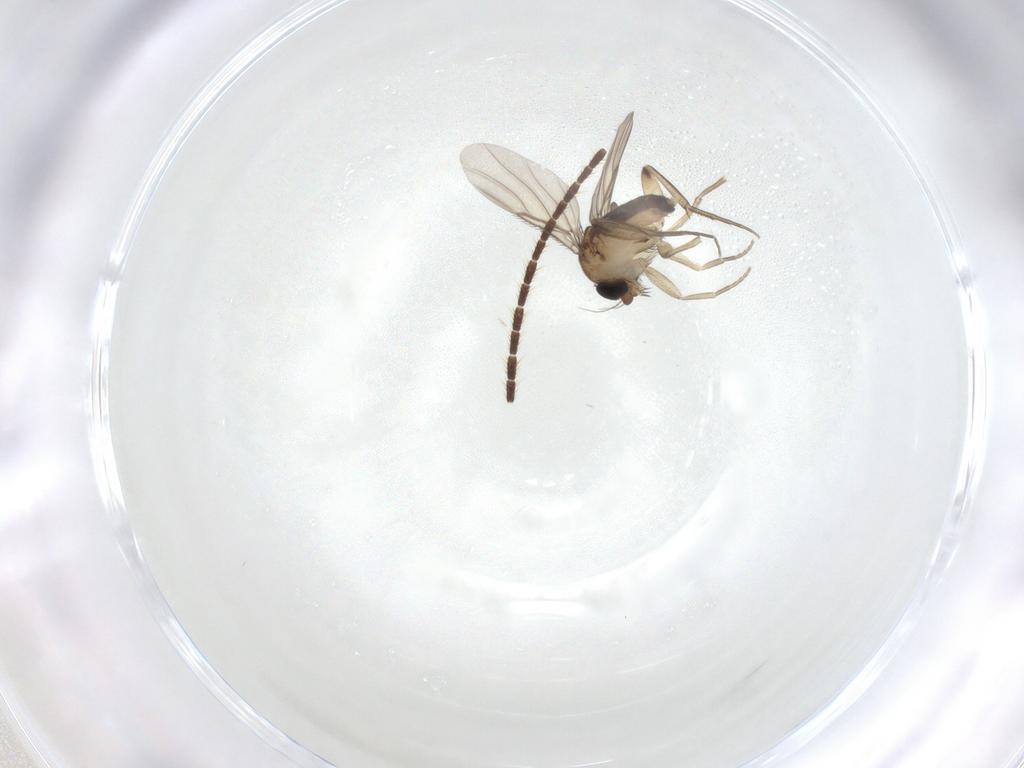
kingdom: Animalia
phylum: Arthropoda
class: Insecta
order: Diptera
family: Phoridae
